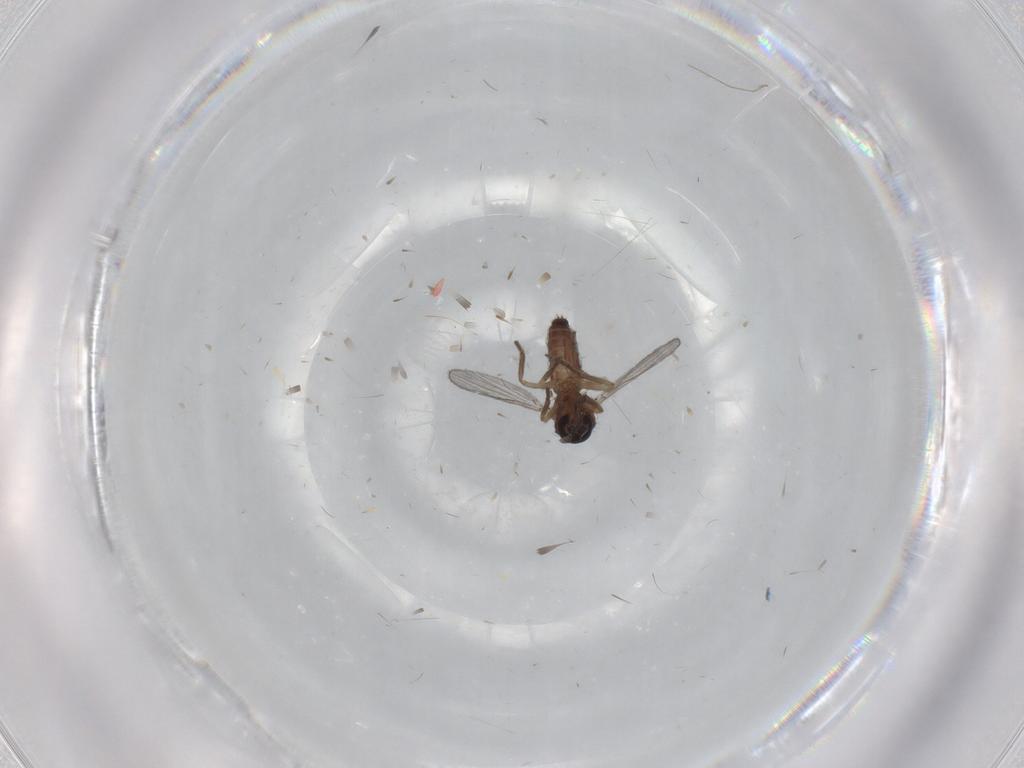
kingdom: Animalia
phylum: Arthropoda
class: Insecta
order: Diptera
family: Ceratopogonidae
